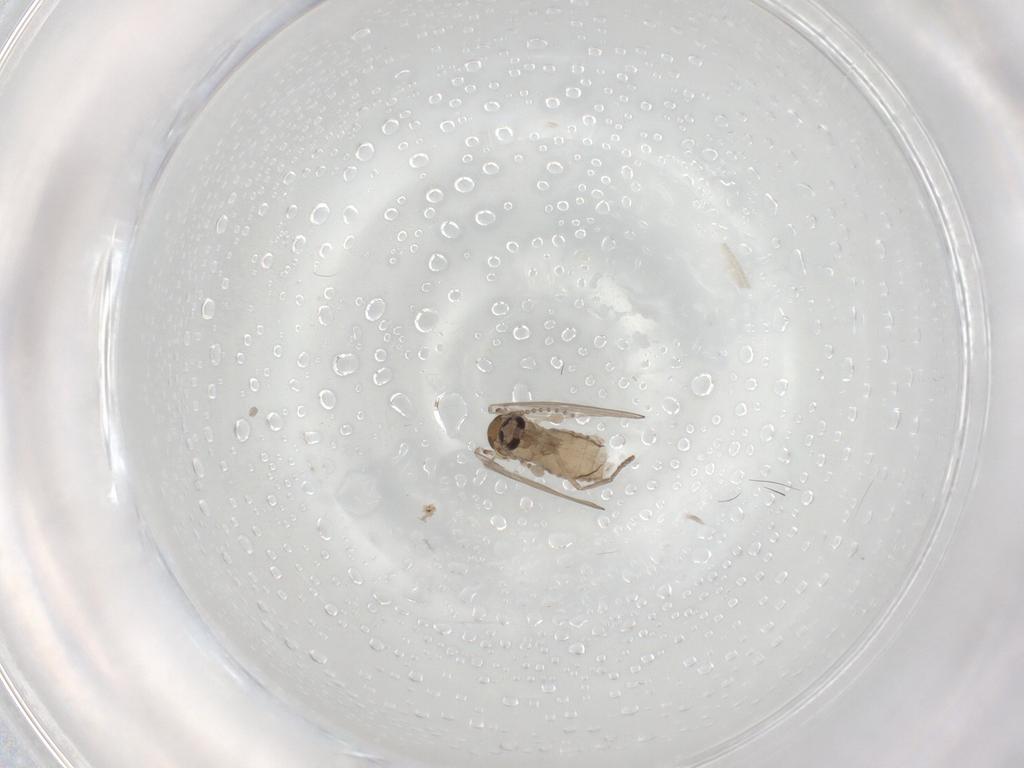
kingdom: Animalia
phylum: Arthropoda
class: Insecta
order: Diptera
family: Psychodidae
